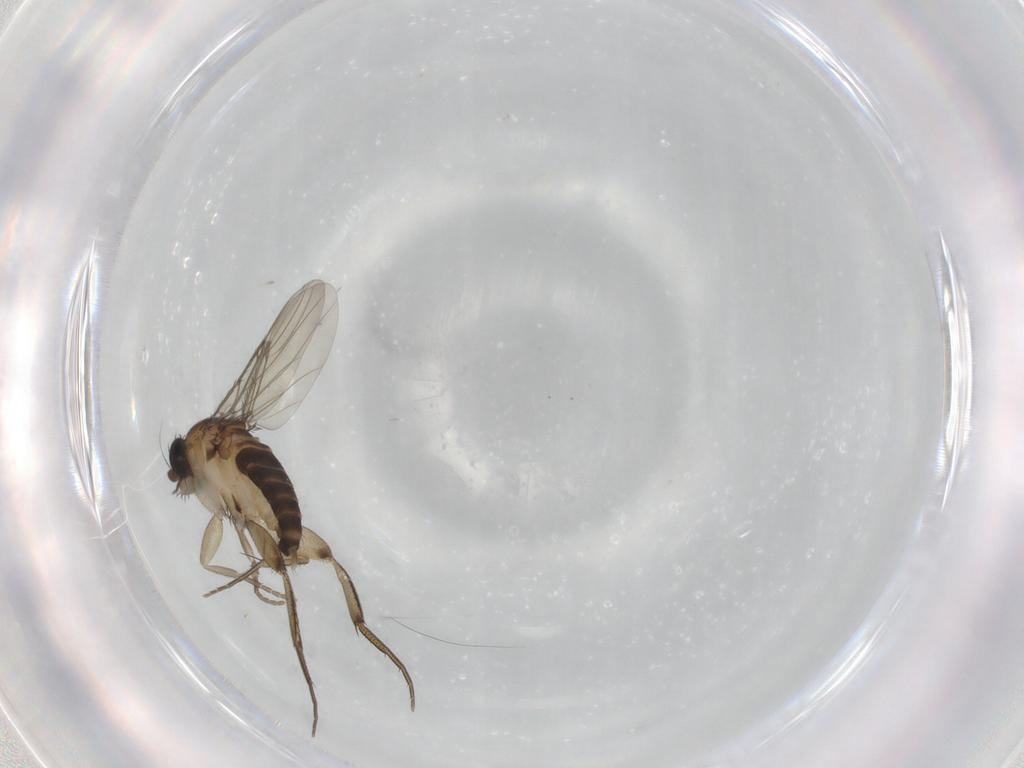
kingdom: Animalia
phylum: Arthropoda
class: Insecta
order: Diptera
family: Phoridae
